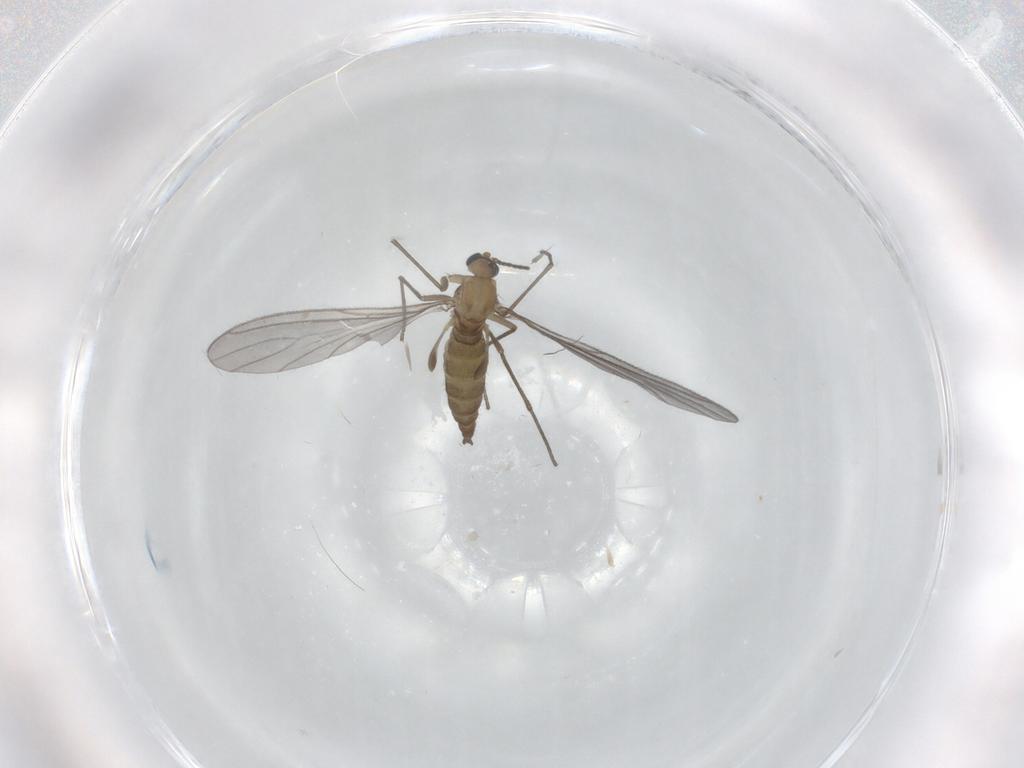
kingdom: Animalia
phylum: Arthropoda
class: Insecta
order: Diptera
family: Sciaridae
